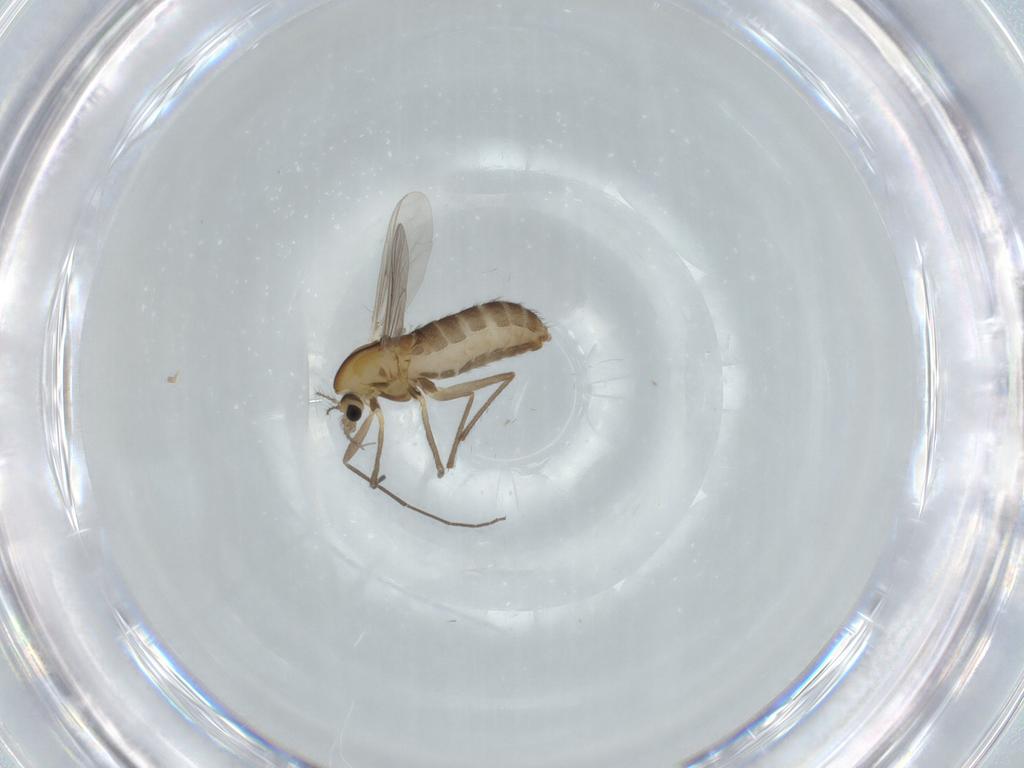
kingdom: Animalia
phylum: Arthropoda
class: Insecta
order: Diptera
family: Chironomidae
